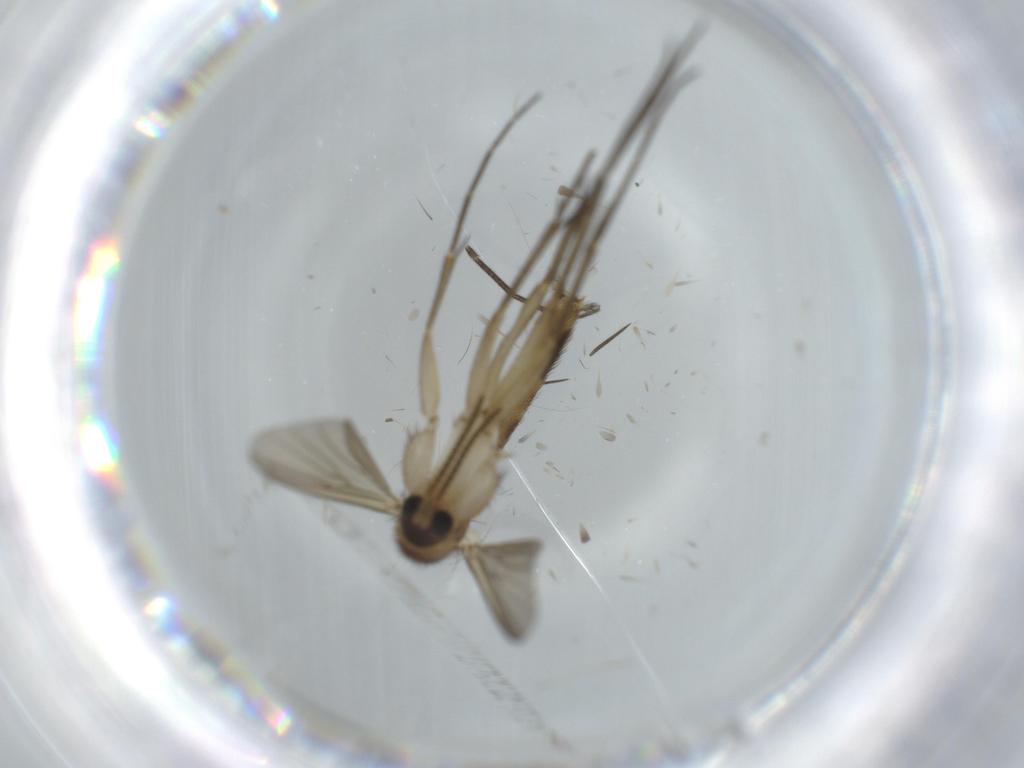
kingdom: Animalia
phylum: Arthropoda
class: Insecta
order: Diptera
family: Mycetophilidae
